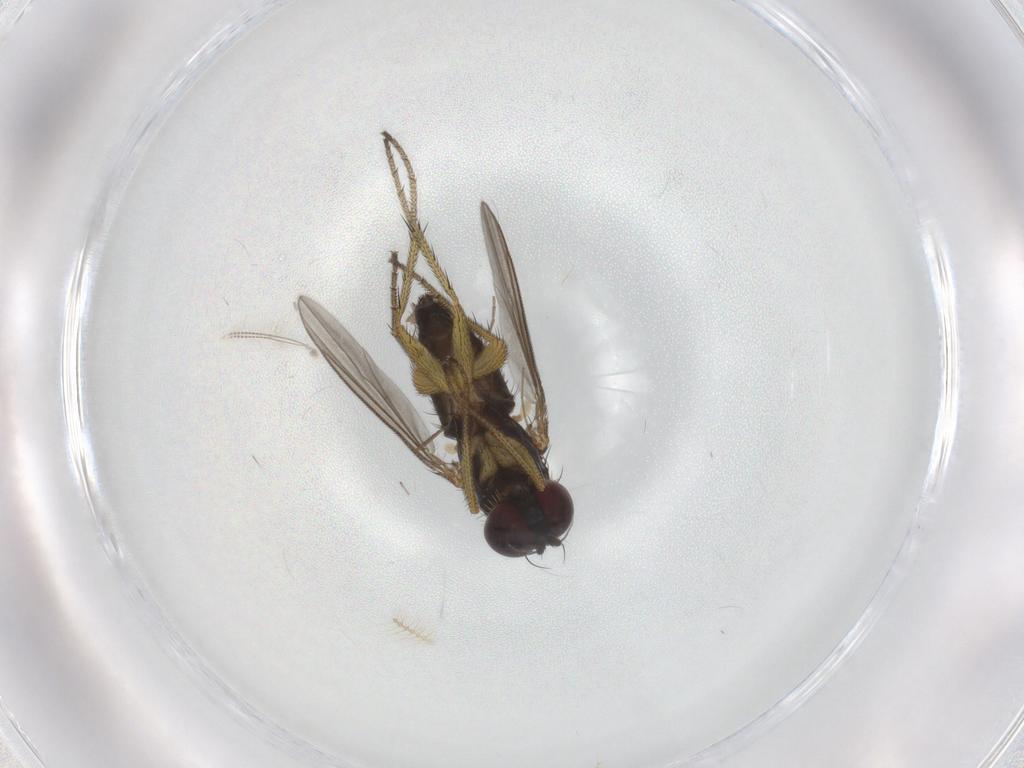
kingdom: Animalia
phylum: Arthropoda
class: Insecta
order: Diptera
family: Dolichopodidae
